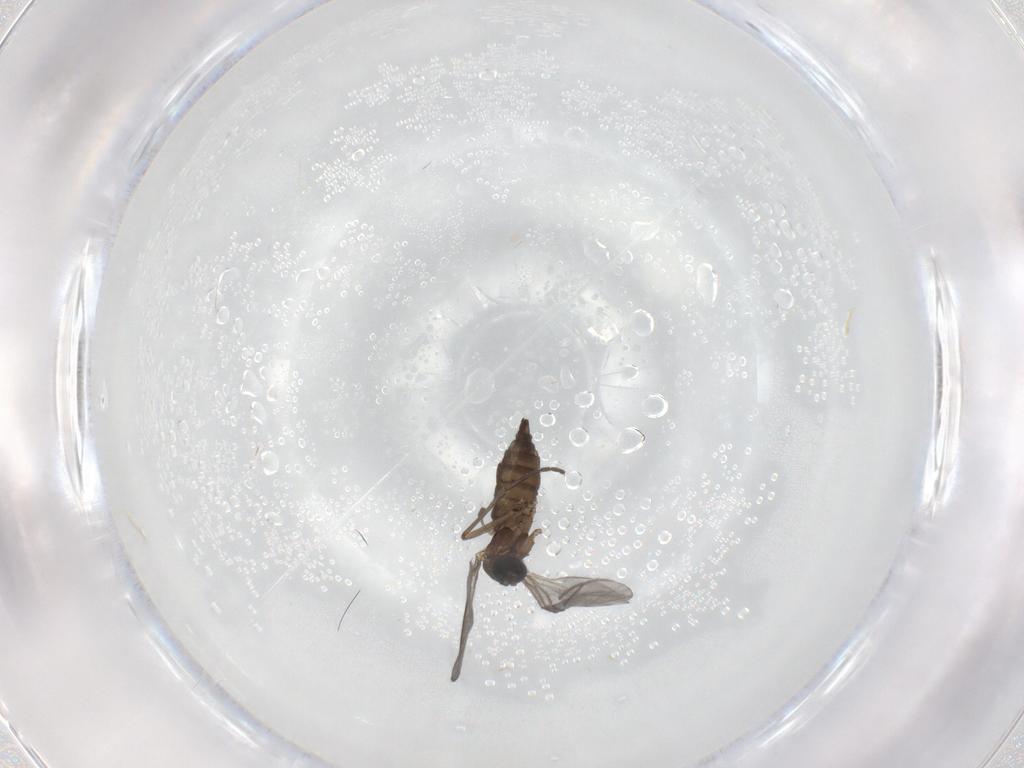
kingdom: Animalia
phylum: Arthropoda
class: Insecta
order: Diptera
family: Sciaridae
